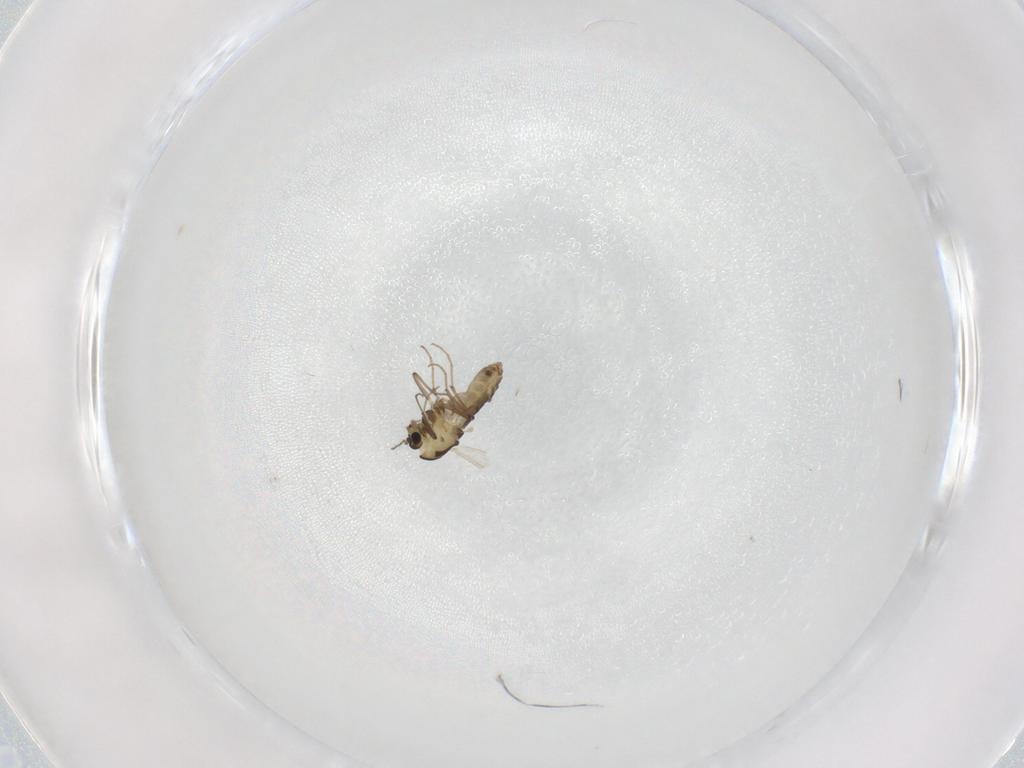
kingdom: Animalia
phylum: Arthropoda
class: Insecta
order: Diptera
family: Chironomidae
